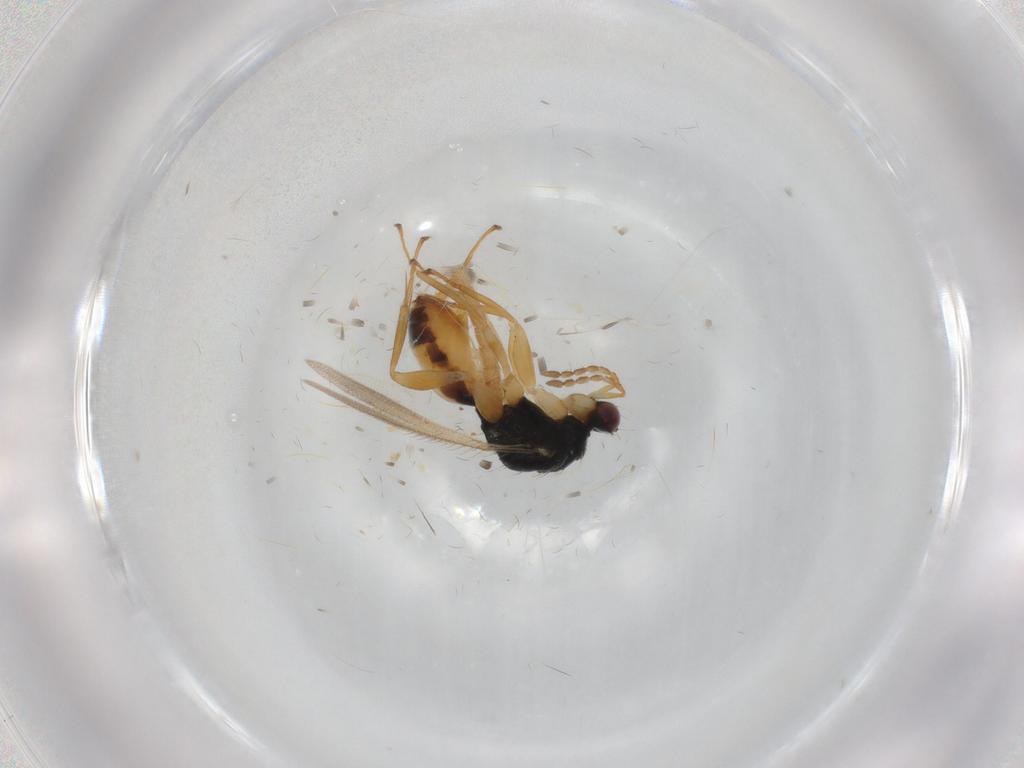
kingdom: Animalia
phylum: Arthropoda
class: Insecta
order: Hymenoptera
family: Eulophidae
